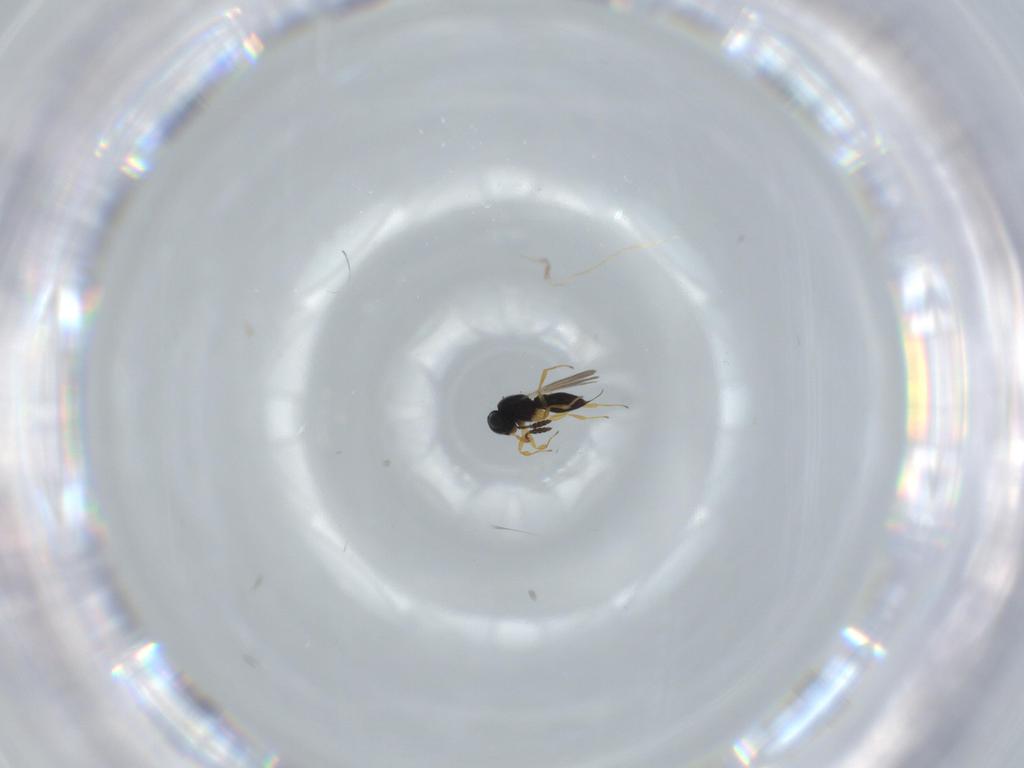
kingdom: Animalia
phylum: Arthropoda
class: Insecta
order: Hymenoptera
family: Scelionidae
